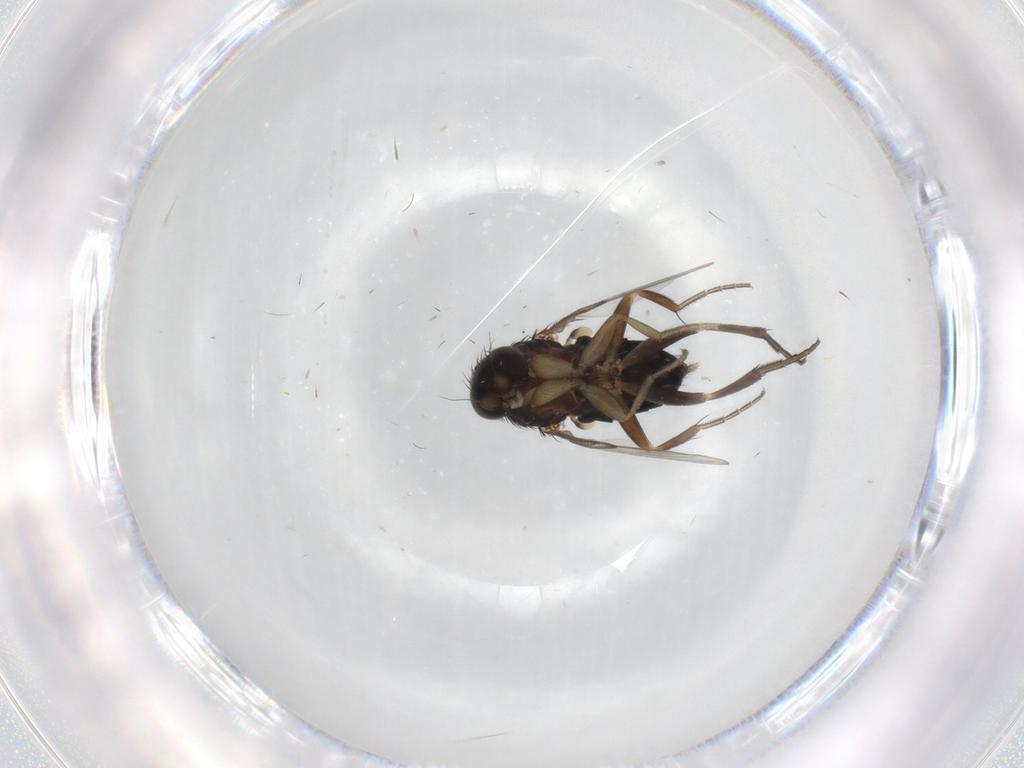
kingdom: Animalia
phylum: Arthropoda
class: Insecta
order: Diptera
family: Phoridae
